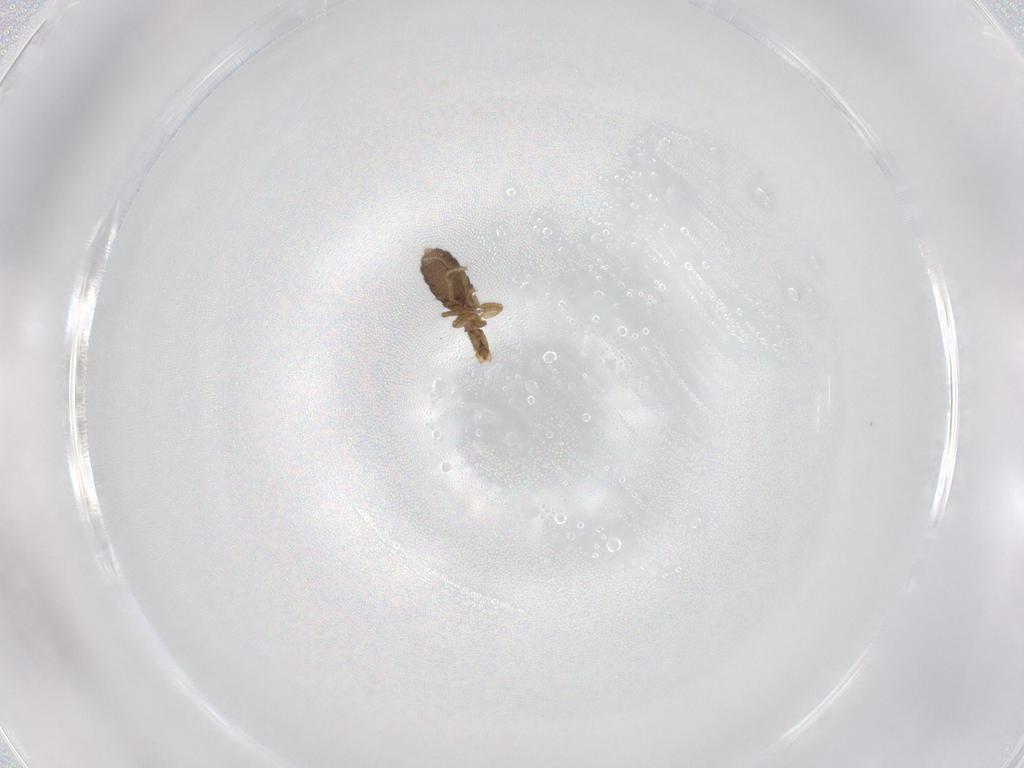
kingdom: Animalia
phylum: Arthropoda
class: Insecta
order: Diptera
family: Phoridae
